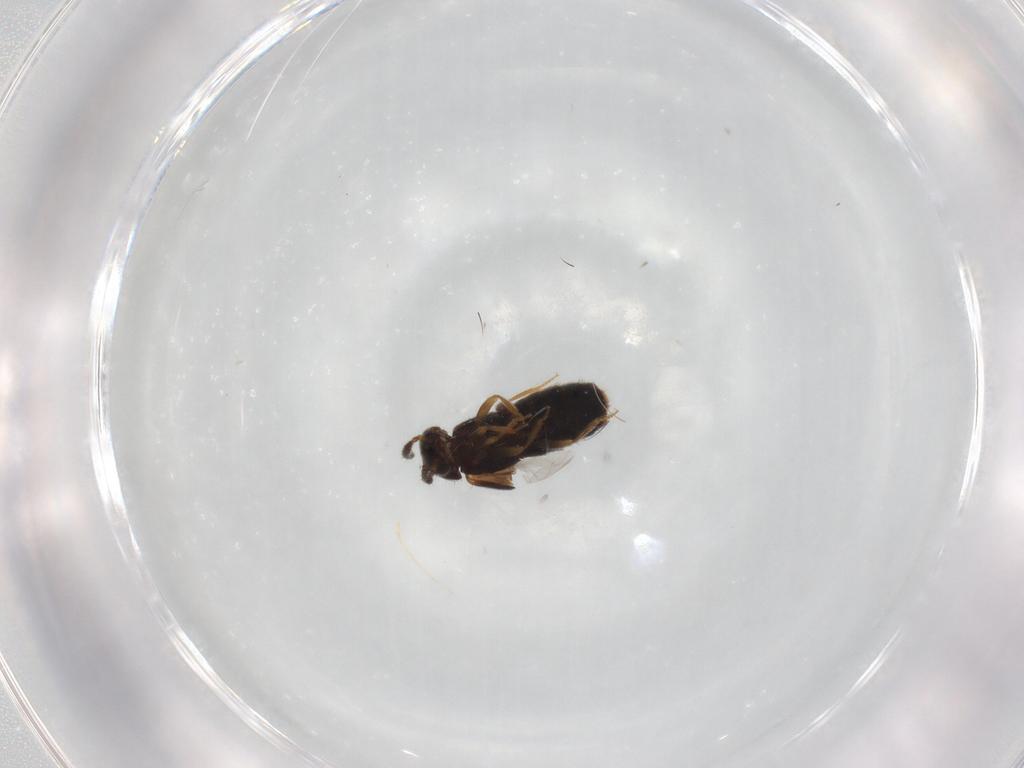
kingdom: Animalia
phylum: Arthropoda
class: Insecta
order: Coleoptera
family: Staphylinidae
